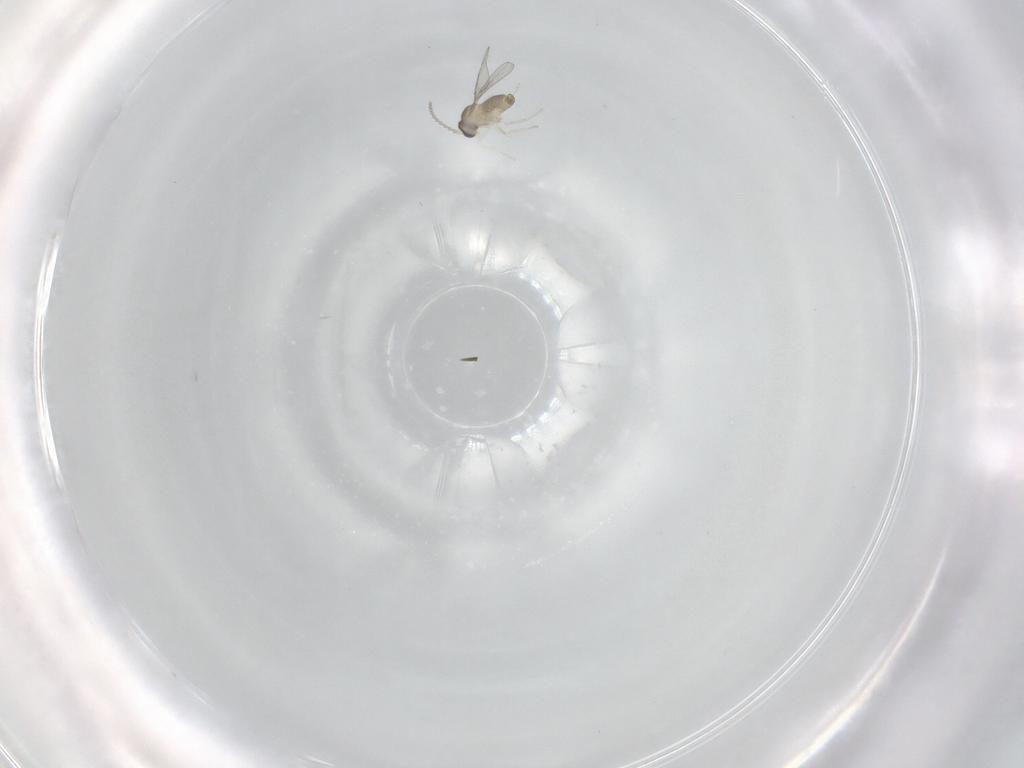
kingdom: Animalia
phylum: Arthropoda
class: Insecta
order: Diptera
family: Cecidomyiidae
